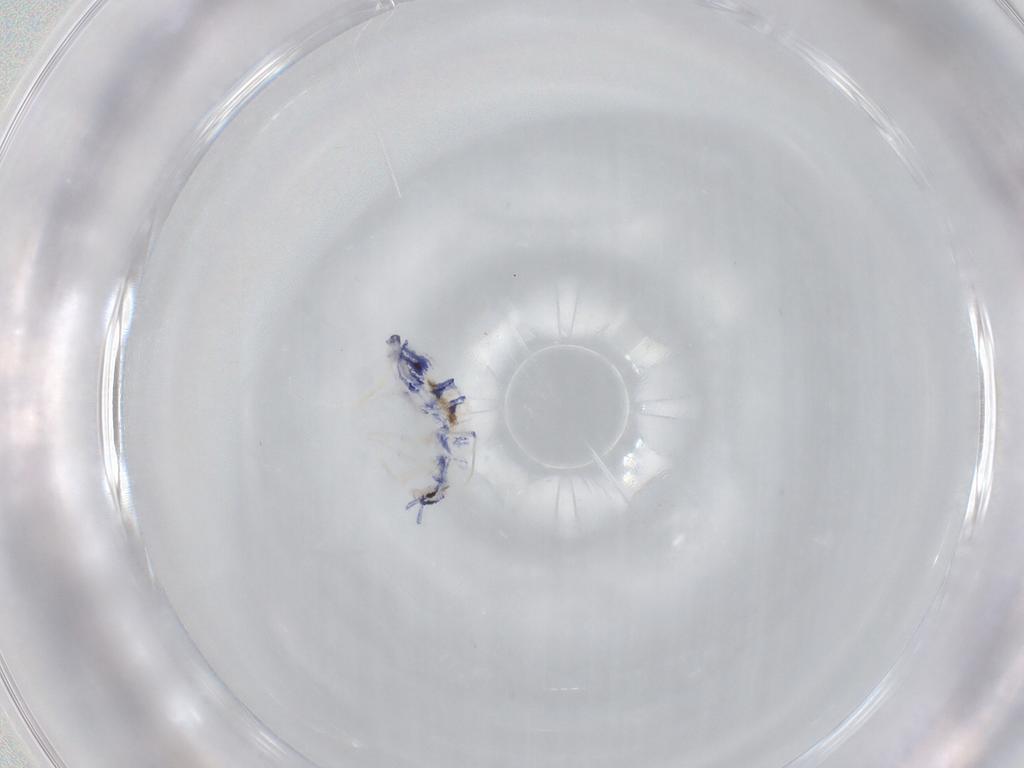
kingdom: Animalia
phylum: Arthropoda
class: Collembola
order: Entomobryomorpha
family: Entomobryidae
